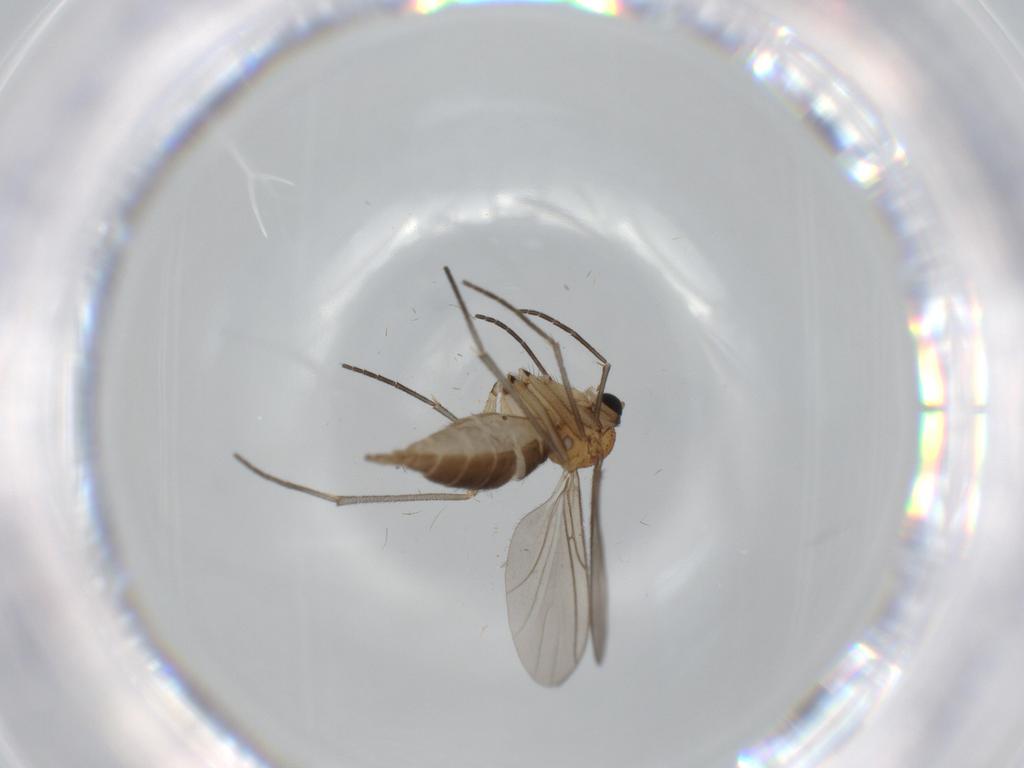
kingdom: Animalia
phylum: Arthropoda
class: Insecta
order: Diptera
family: Sciaridae
